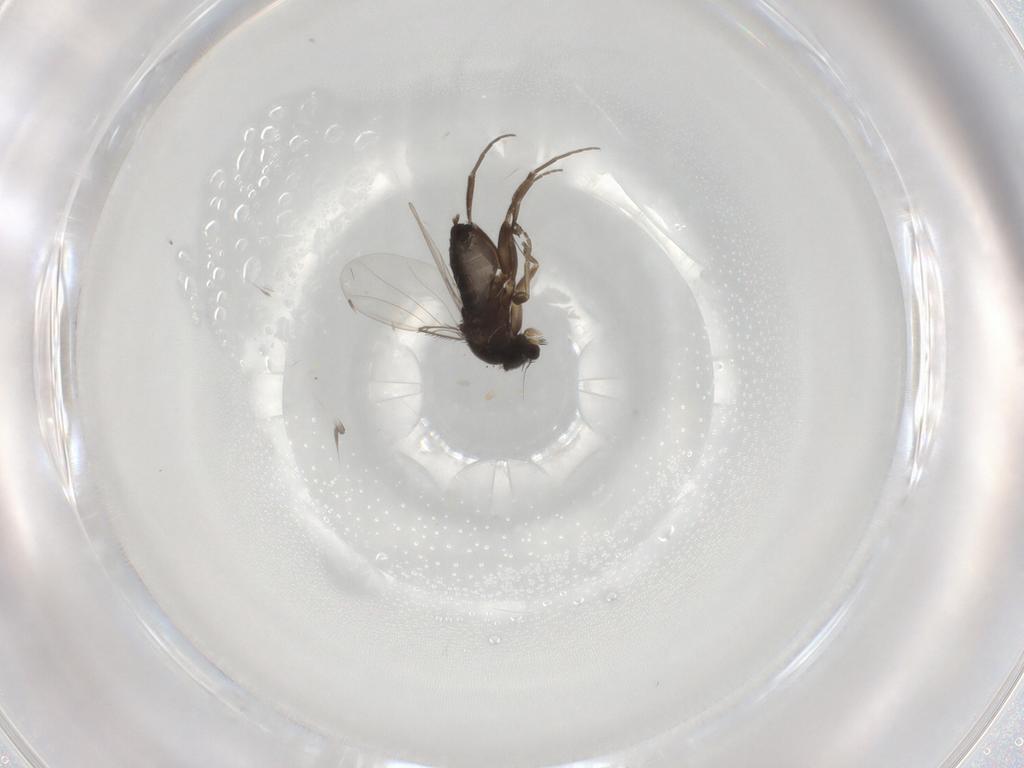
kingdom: Animalia
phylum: Arthropoda
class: Insecta
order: Diptera
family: Phoridae
